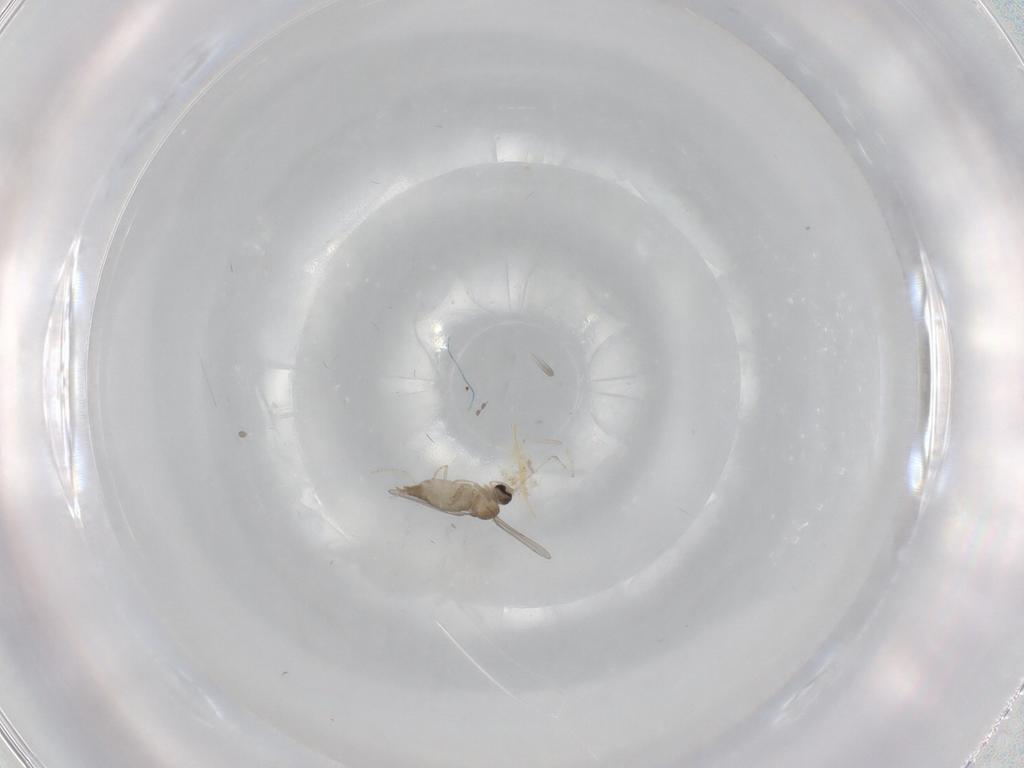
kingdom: Animalia
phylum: Arthropoda
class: Insecta
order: Diptera
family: Cecidomyiidae
